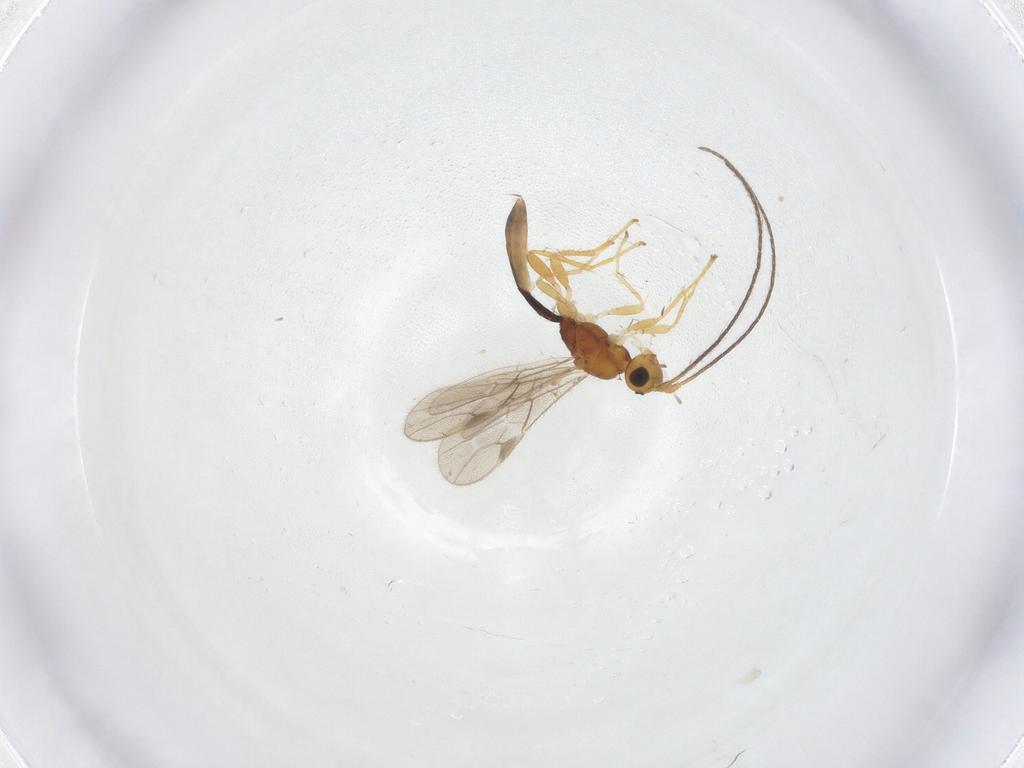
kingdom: Animalia
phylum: Arthropoda
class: Insecta
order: Hymenoptera
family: Braconidae
